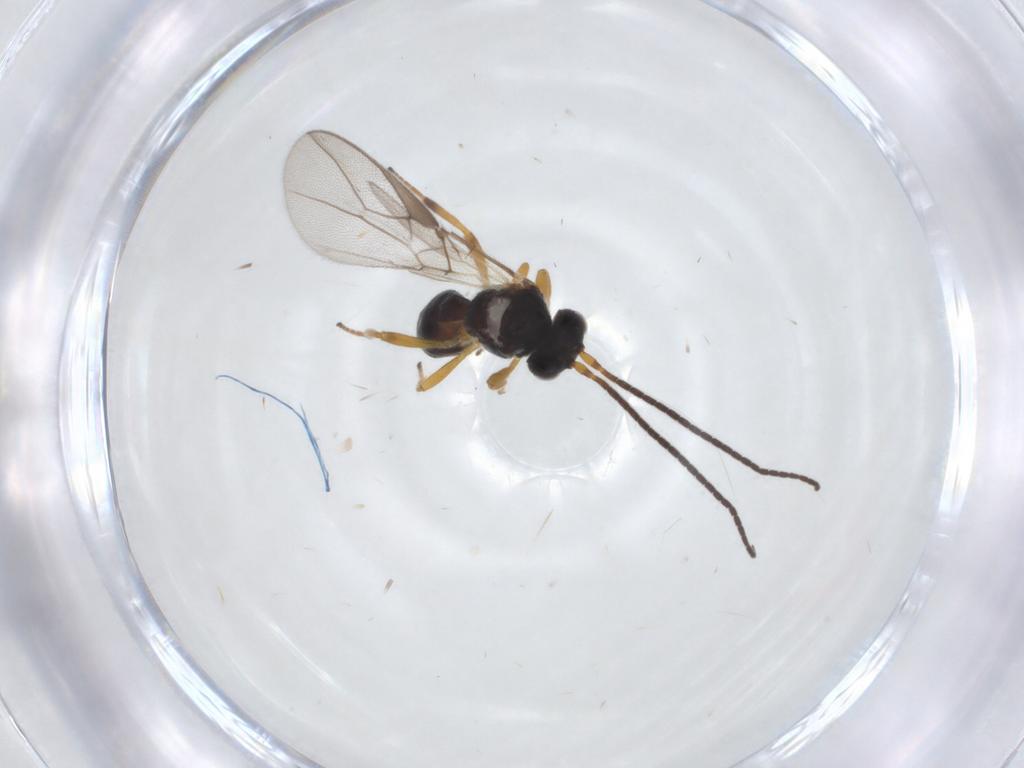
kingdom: Animalia
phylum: Arthropoda
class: Insecta
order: Hymenoptera
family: Braconidae
